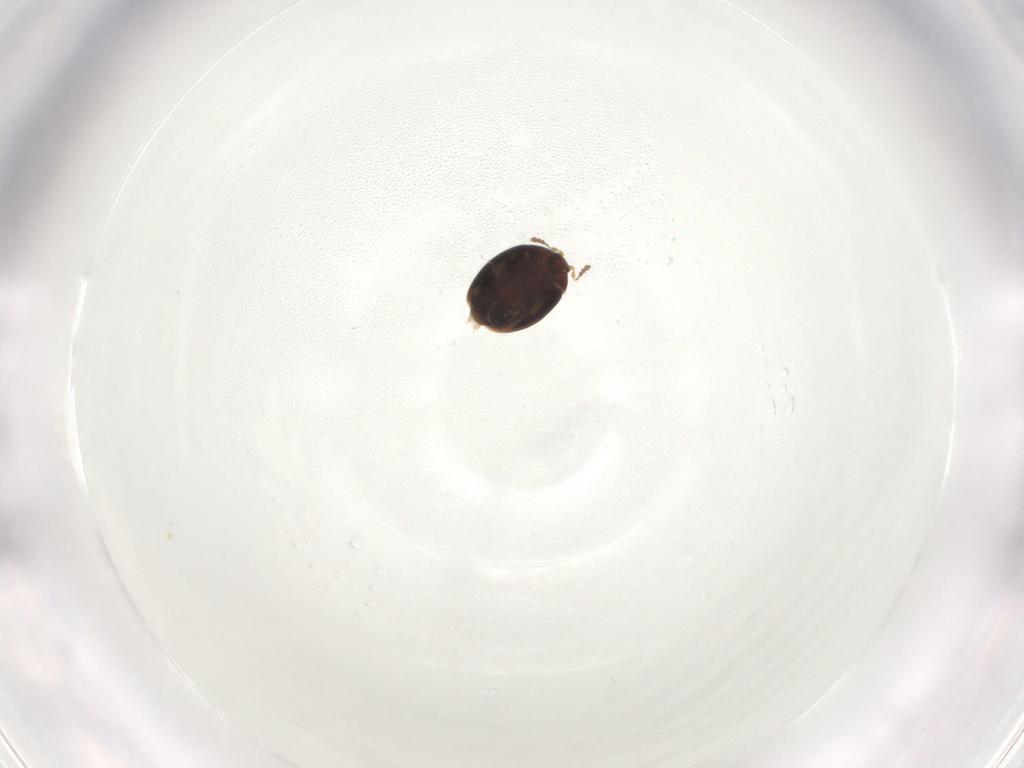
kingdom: Animalia
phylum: Arthropoda
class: Insecta
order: Coleoptera
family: Corylophidae
